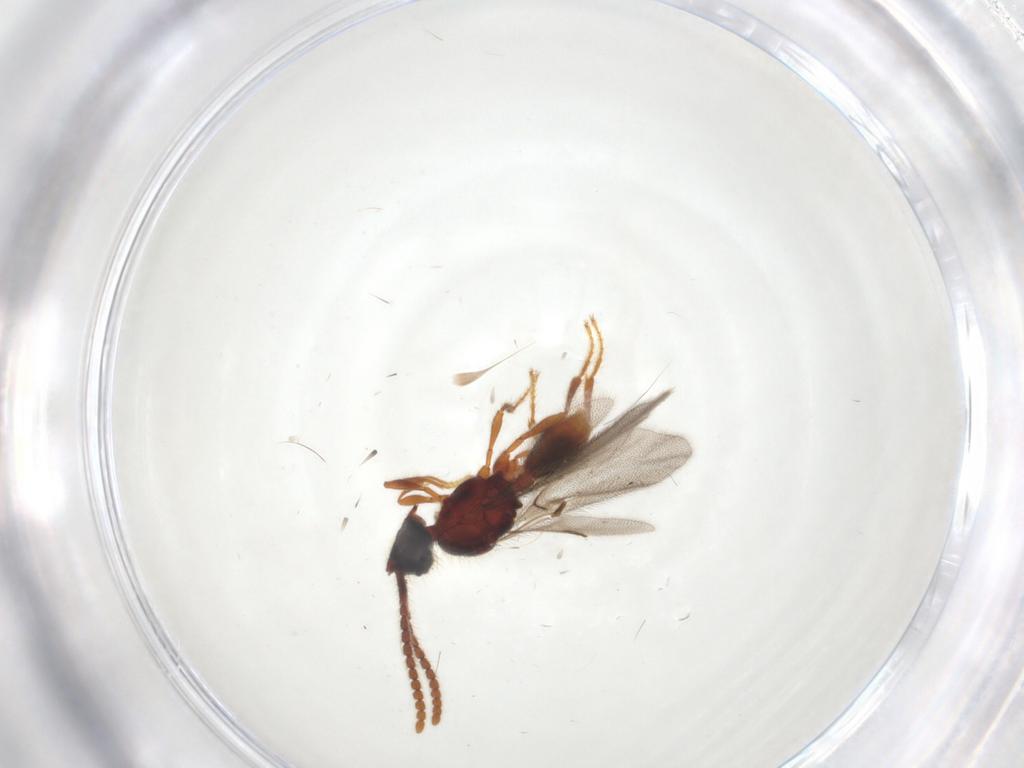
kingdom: Animalia
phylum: Arthropoda
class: Insecta
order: Hymenoptera
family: Diapriidae
